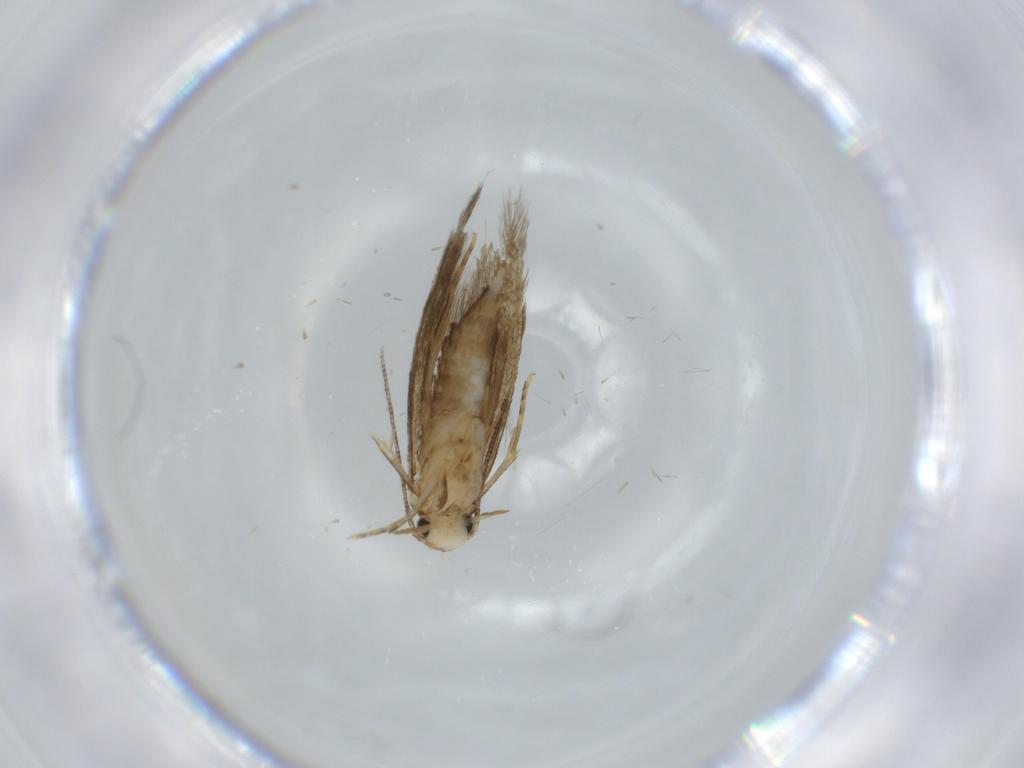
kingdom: Animalia
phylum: Arthropoda
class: Insecta
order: Lepidoptera
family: Tineidae
